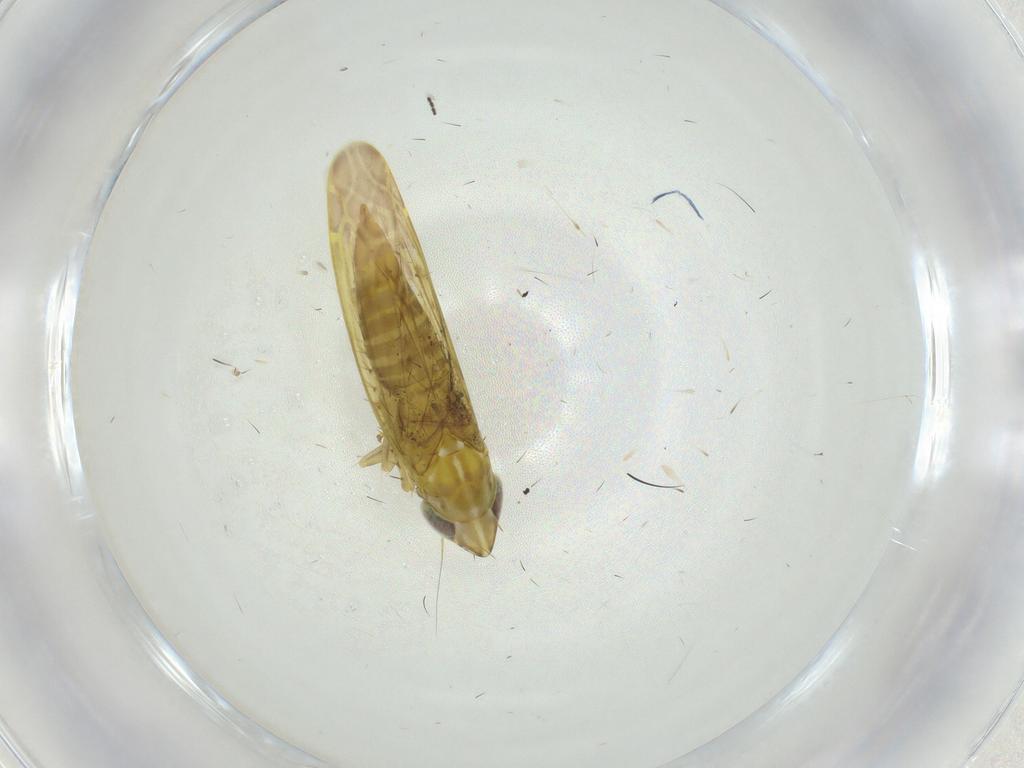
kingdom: Animalia
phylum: Arthropoda
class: Insecta
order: Hemiptera
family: Cicadellidae
